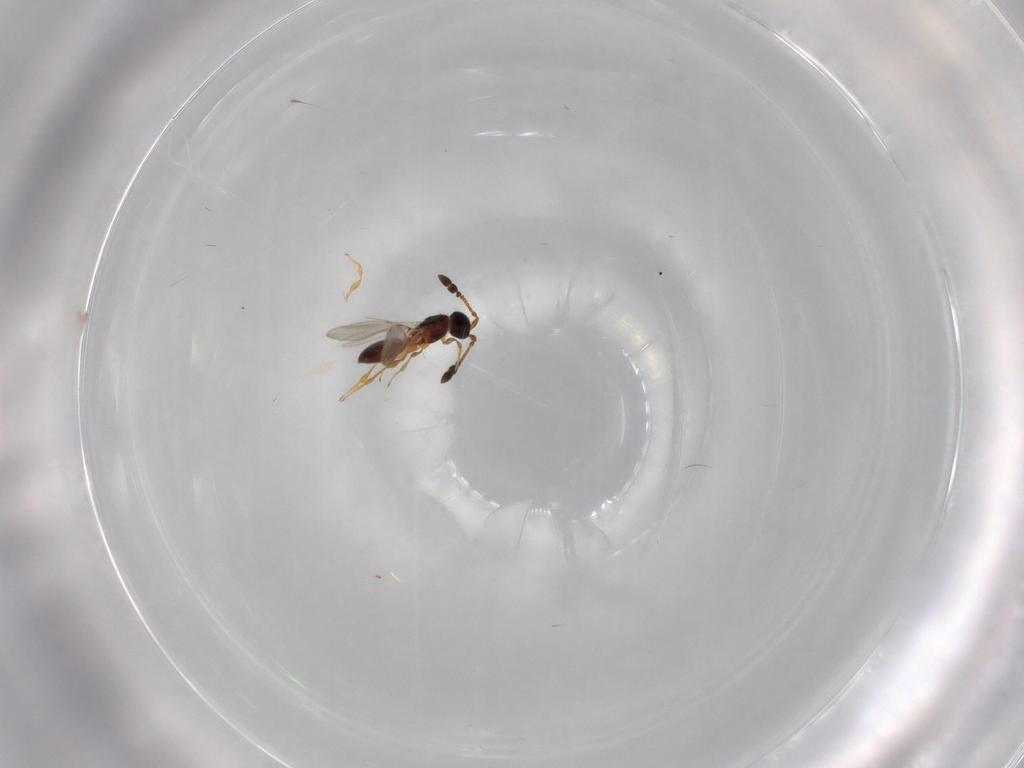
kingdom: Animalia
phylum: Arthropoda
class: Insecta
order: Hymenoptera
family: Diapriidae
